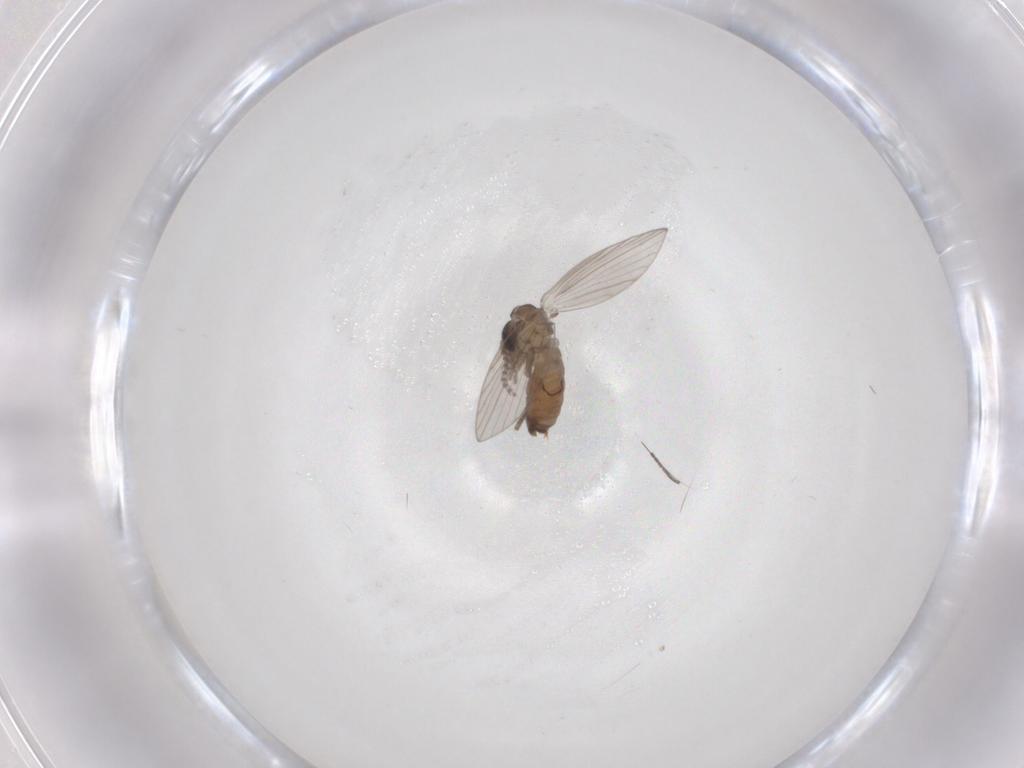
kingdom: Animalia
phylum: Arthropoda
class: Insecta
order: Diptera
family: Psychodidae
